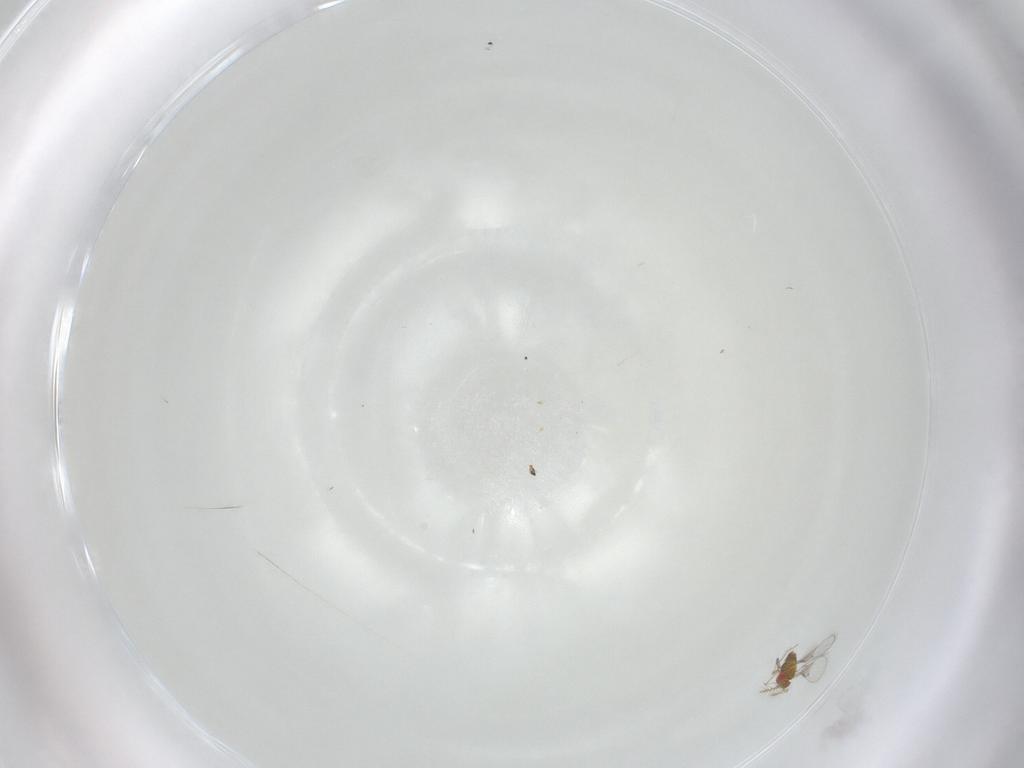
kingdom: Animalia
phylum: Arthropoda
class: Insecta
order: Hymenoptera
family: Trichogrammatidae
